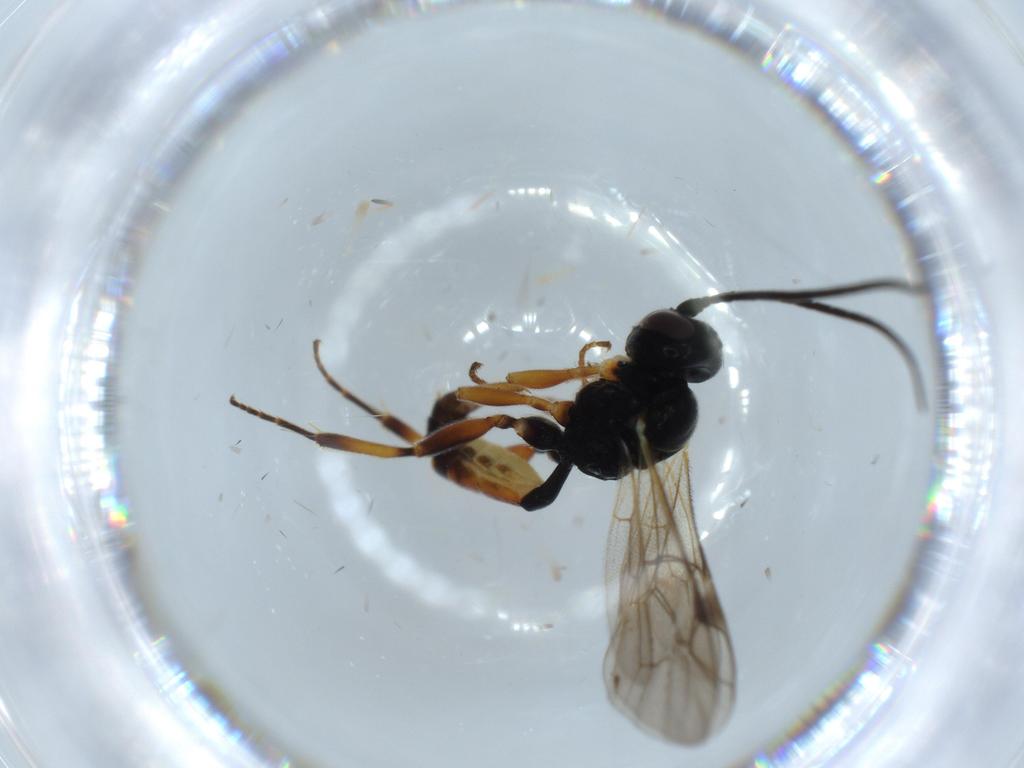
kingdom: Animalia
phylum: Arthropoda
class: Insecta
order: Hymenoptera
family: Ichneumonidae
